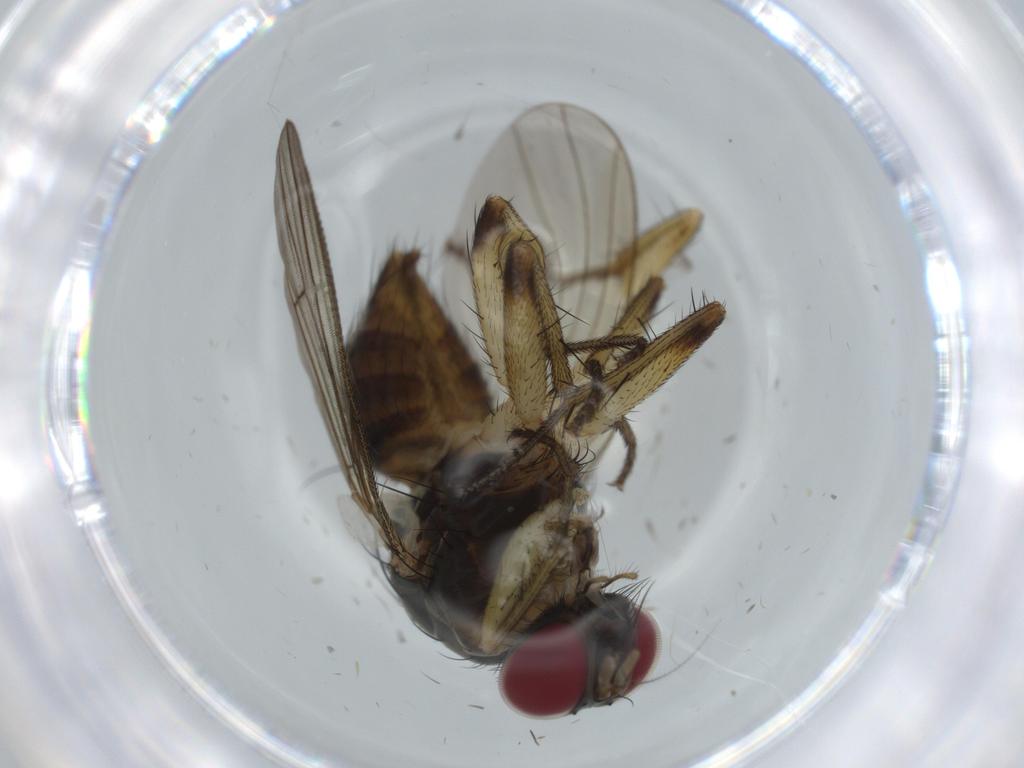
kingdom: Animalia
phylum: Arthropoda
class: Insecta
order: Diptera
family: Muscidae
